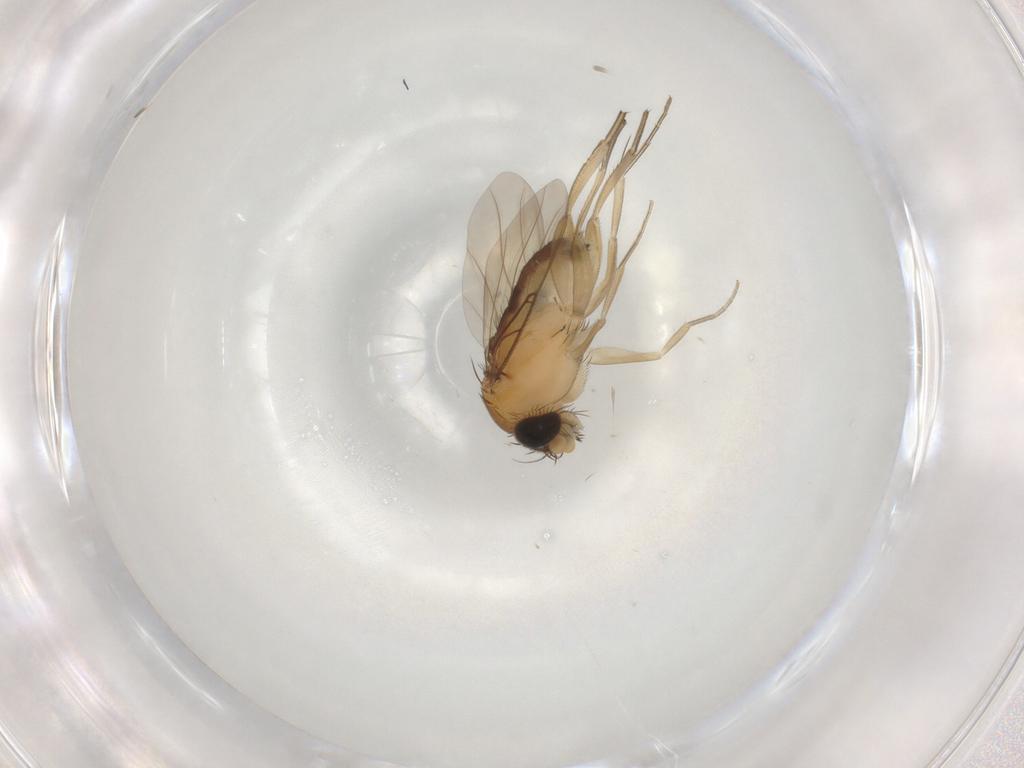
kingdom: Animalia
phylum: Arthropoda
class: Insecta
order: Diptera
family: Phoridae
